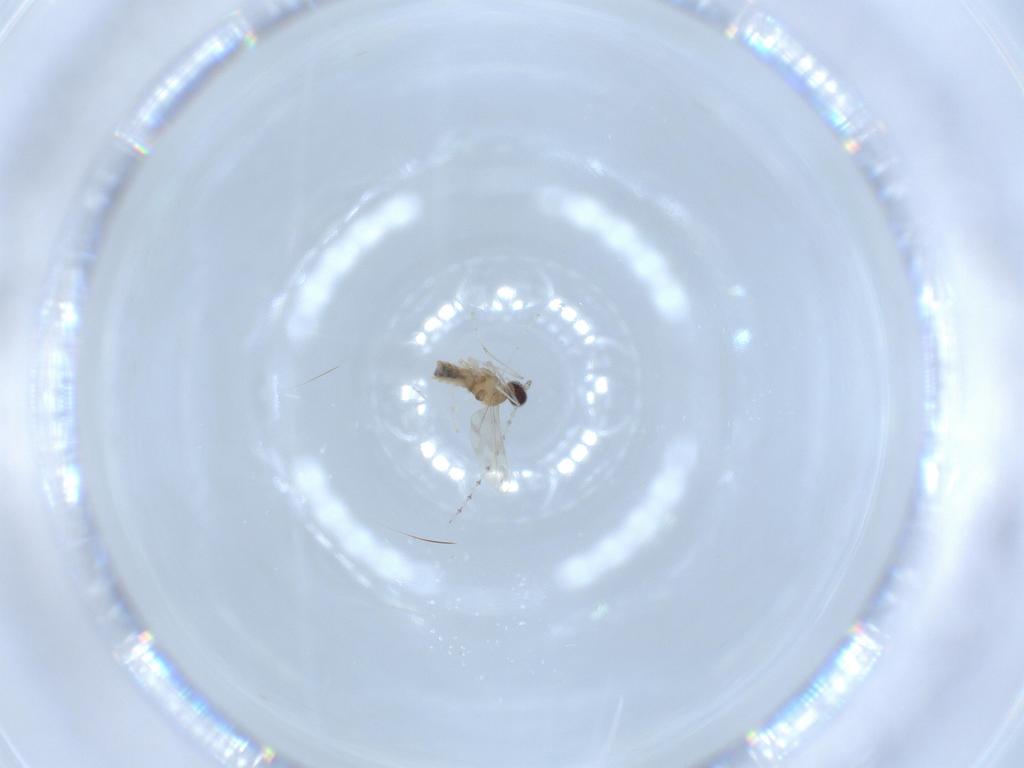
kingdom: Animalia
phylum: Arthropoda
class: Insecta
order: Diptera
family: Cecidomyiidae
